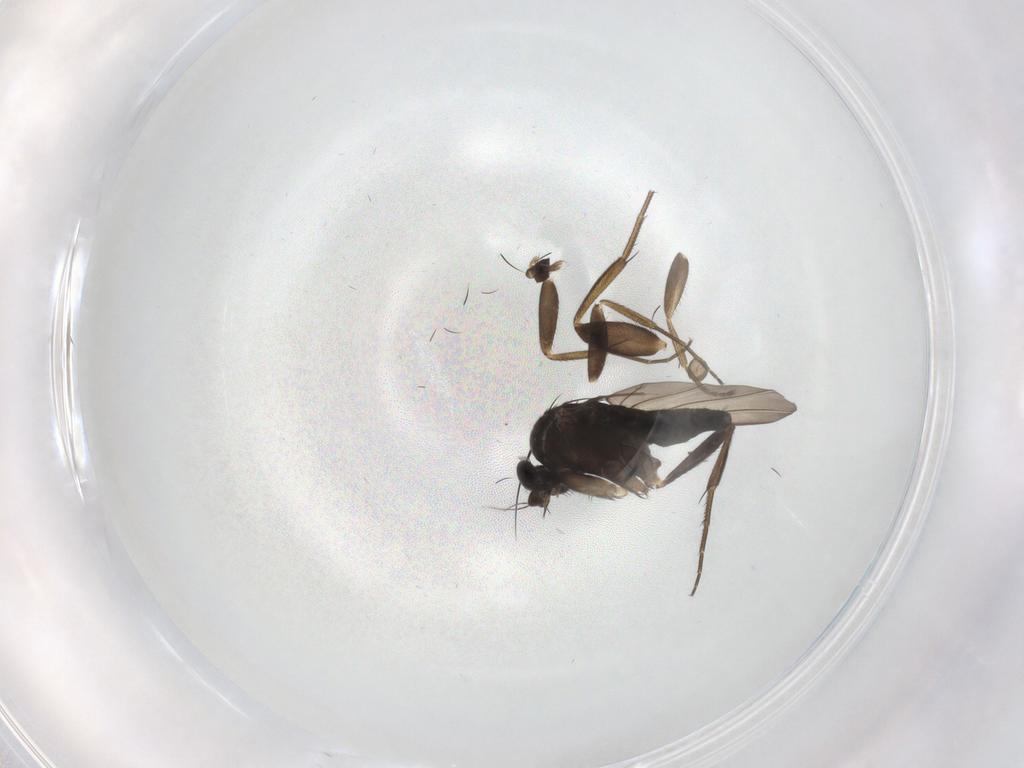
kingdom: Animalia
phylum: Arthropoda
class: Insecta
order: Diptera
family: Phoridae
